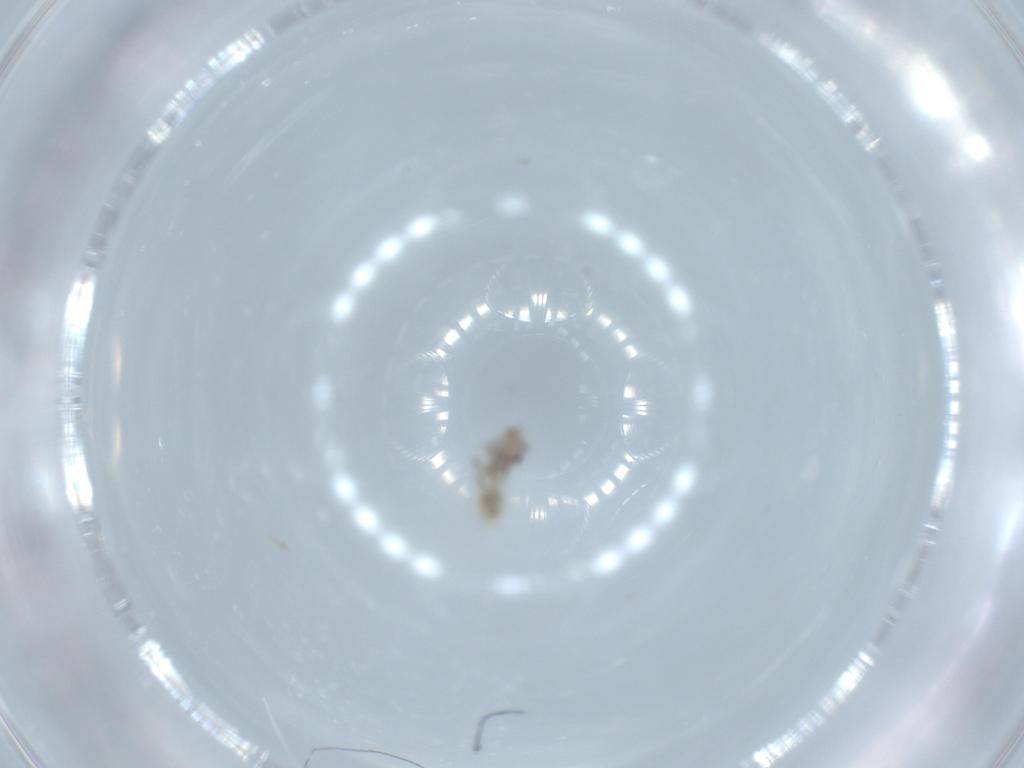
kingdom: Animalia
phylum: Arthropoda
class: Insecta
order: Psocodea
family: Lepidopsocidae
